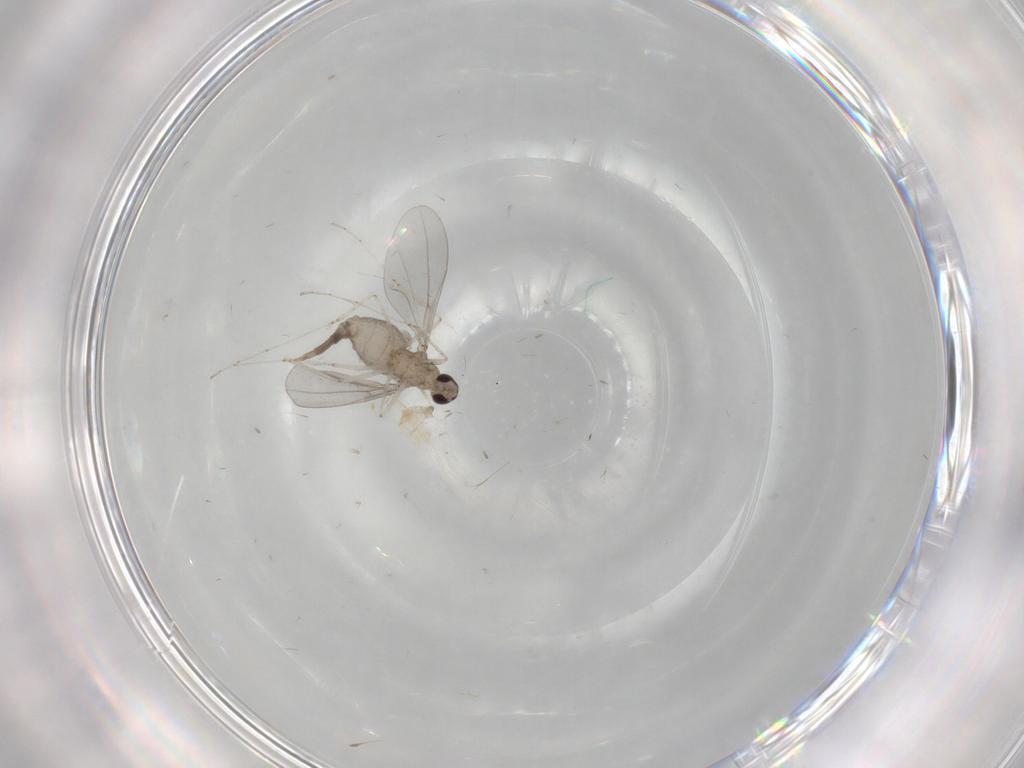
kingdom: Animalia
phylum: Arthropoda
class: Insecta
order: Diptera
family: Cecidomyiidae
